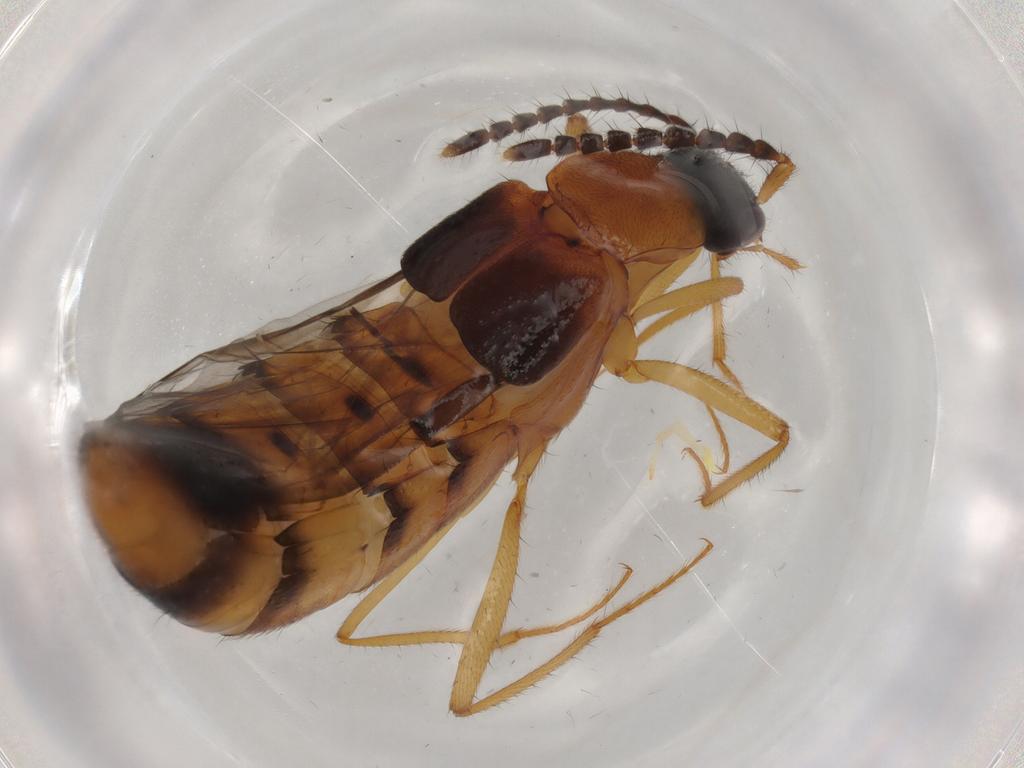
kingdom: Animalia
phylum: Arthropoda
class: Insecta
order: Coleoptera
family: Staphylinidae
